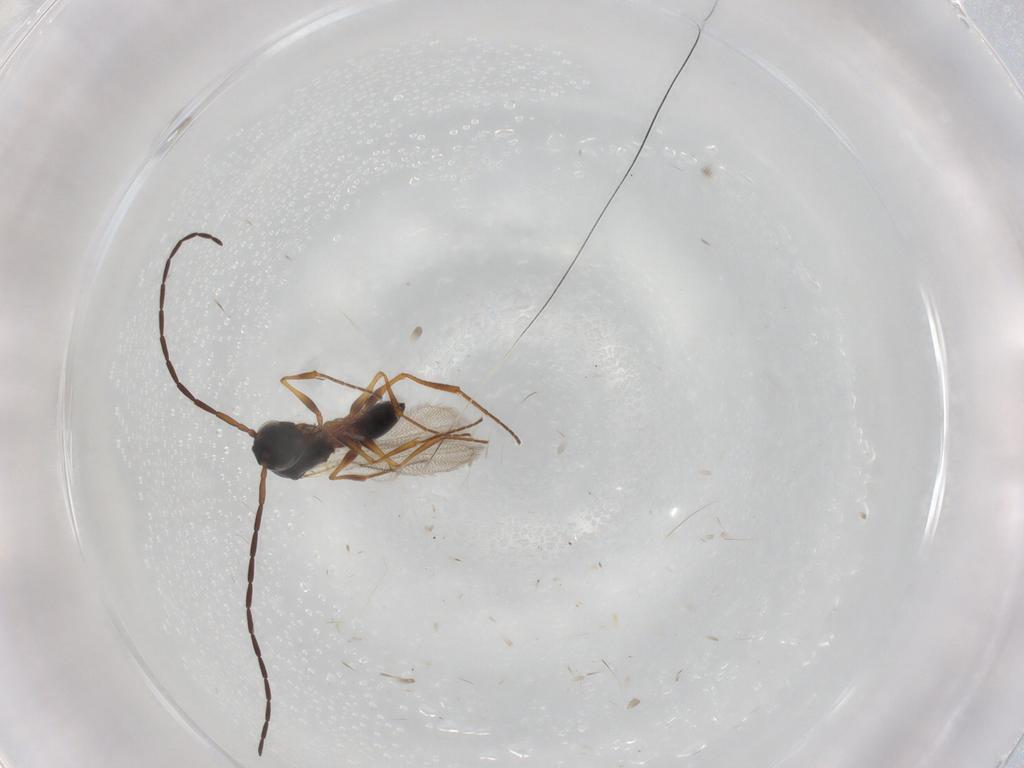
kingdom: Animalia
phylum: Arthropoda
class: Insecta
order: Hymenoptera
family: Figitidae
